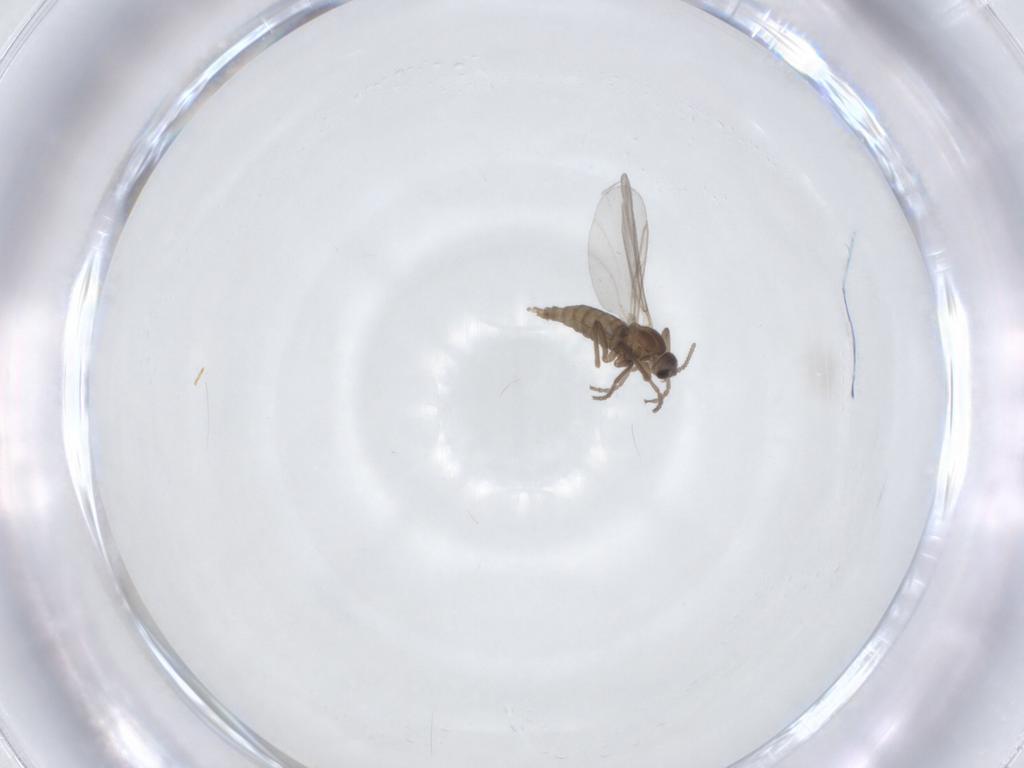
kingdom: Animalia
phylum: Arthropoda
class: Insecta
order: Diptera
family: Cecidomyiidae
